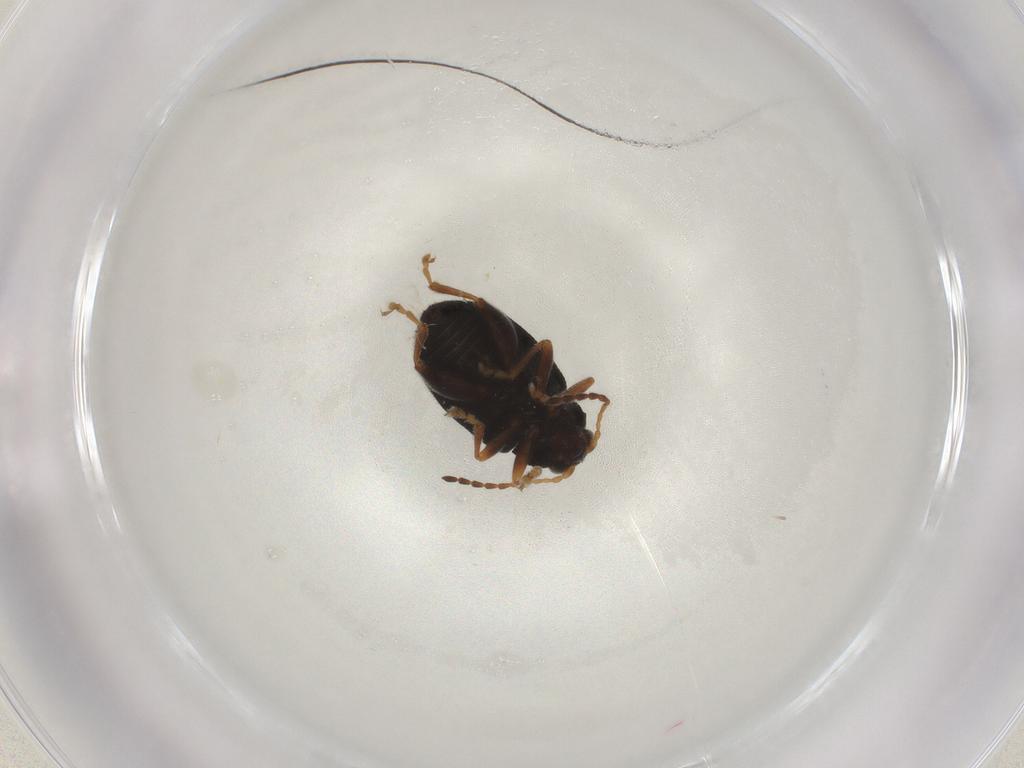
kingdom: Animalia
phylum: Arthropoda
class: Insecta
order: Coleoptera
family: Chrysomelidae
